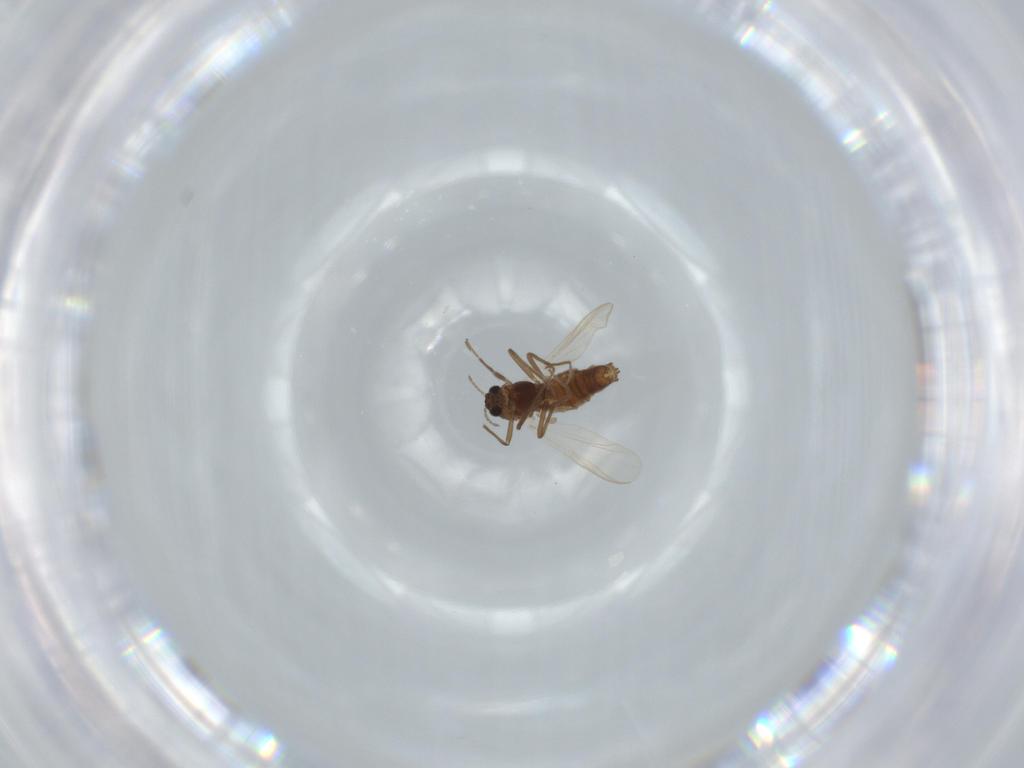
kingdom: Animalia
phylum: Arthropoda
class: Insecta
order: Diptera
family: Chironomidae
